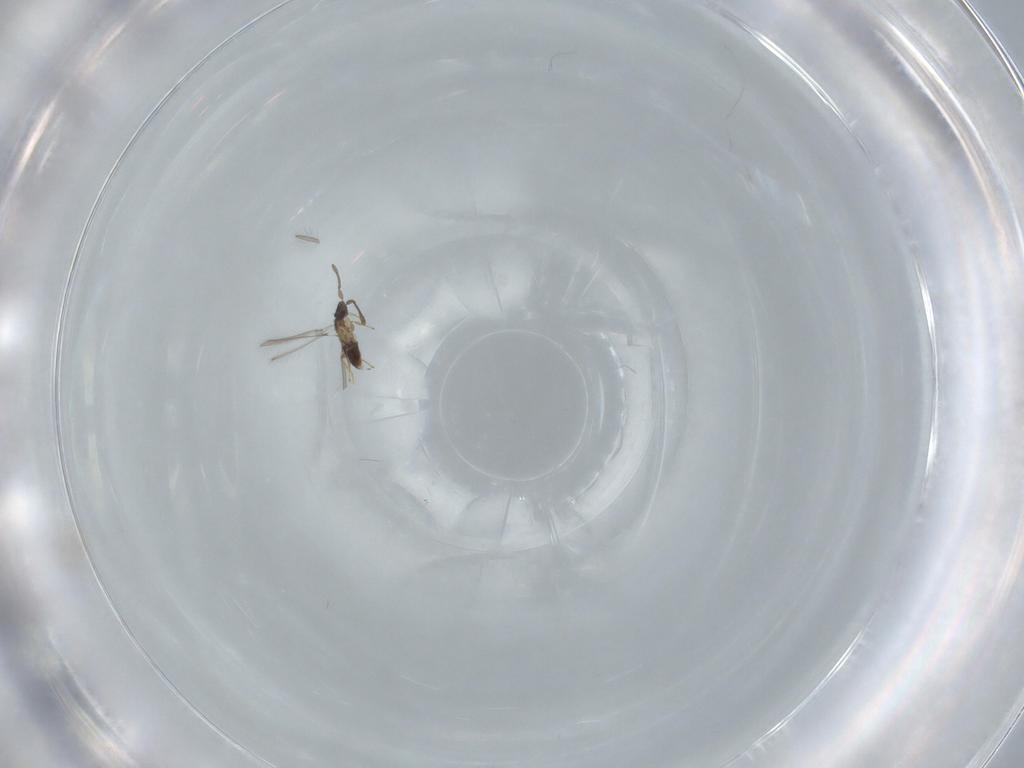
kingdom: Animalia
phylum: Arthropoda
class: Insecta
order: Hymenoptera
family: Mymaridae
